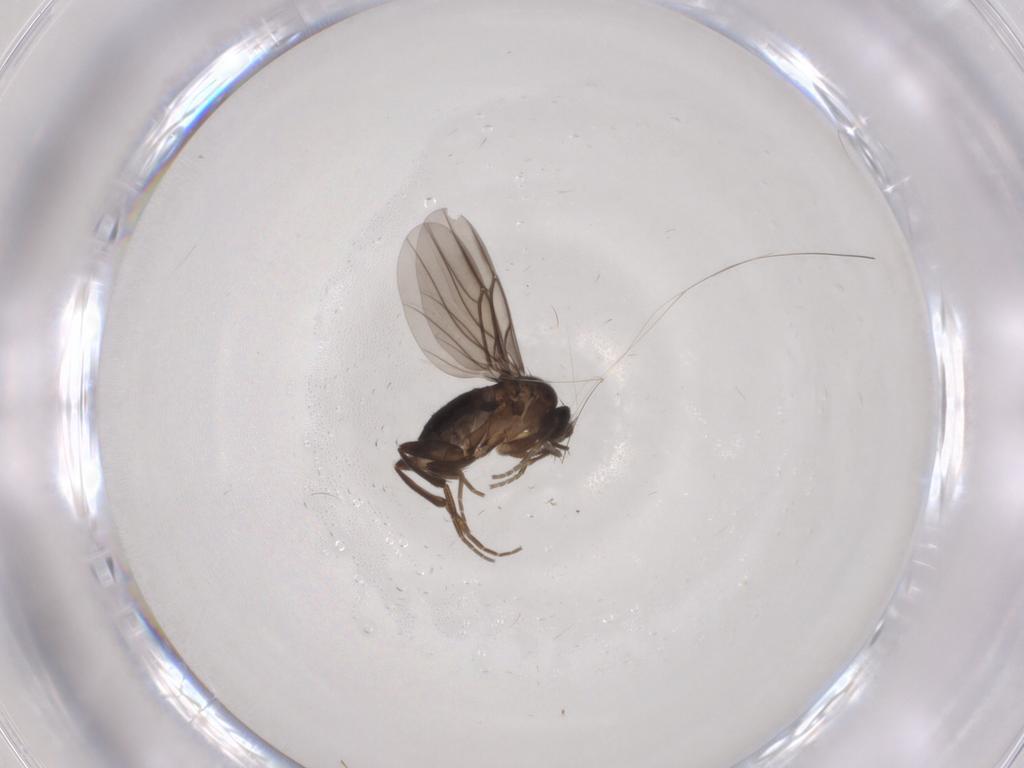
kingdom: Animalia
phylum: Arthropoda
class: Insecta
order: Diptera
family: Phoridae
